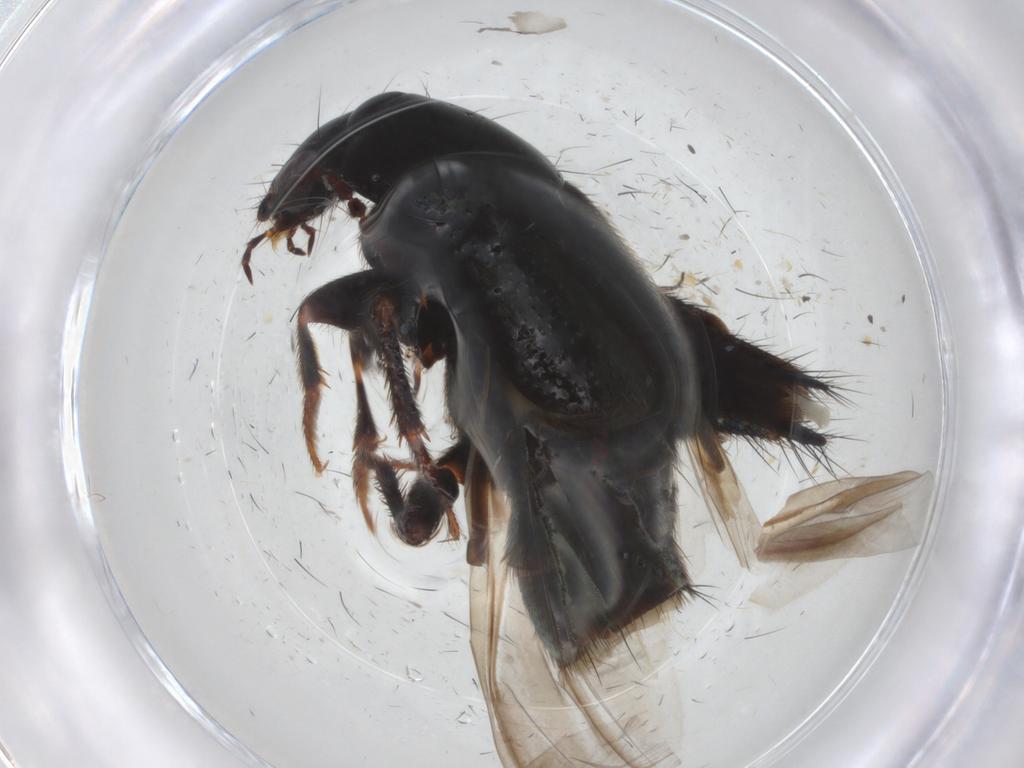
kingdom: Animalia
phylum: Arthropoda
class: Insecta
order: Coleoptera
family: Staphylinidae
